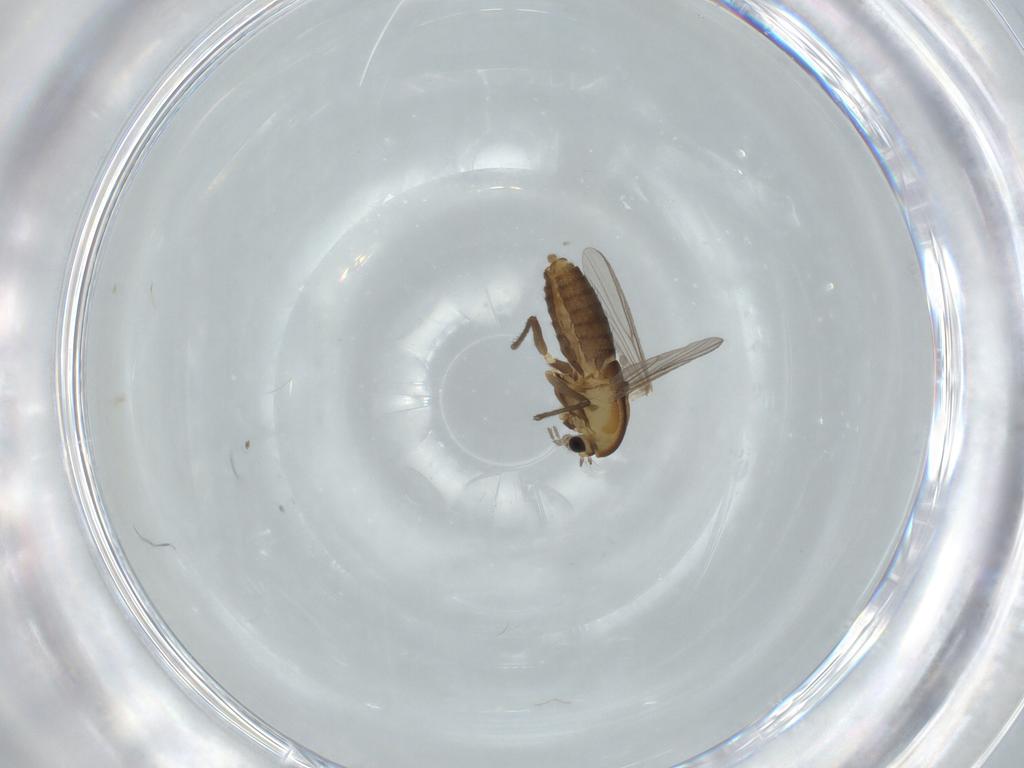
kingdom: Animalia
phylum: Arthropoda
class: Insecta
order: Diptera
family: Chironomidae
